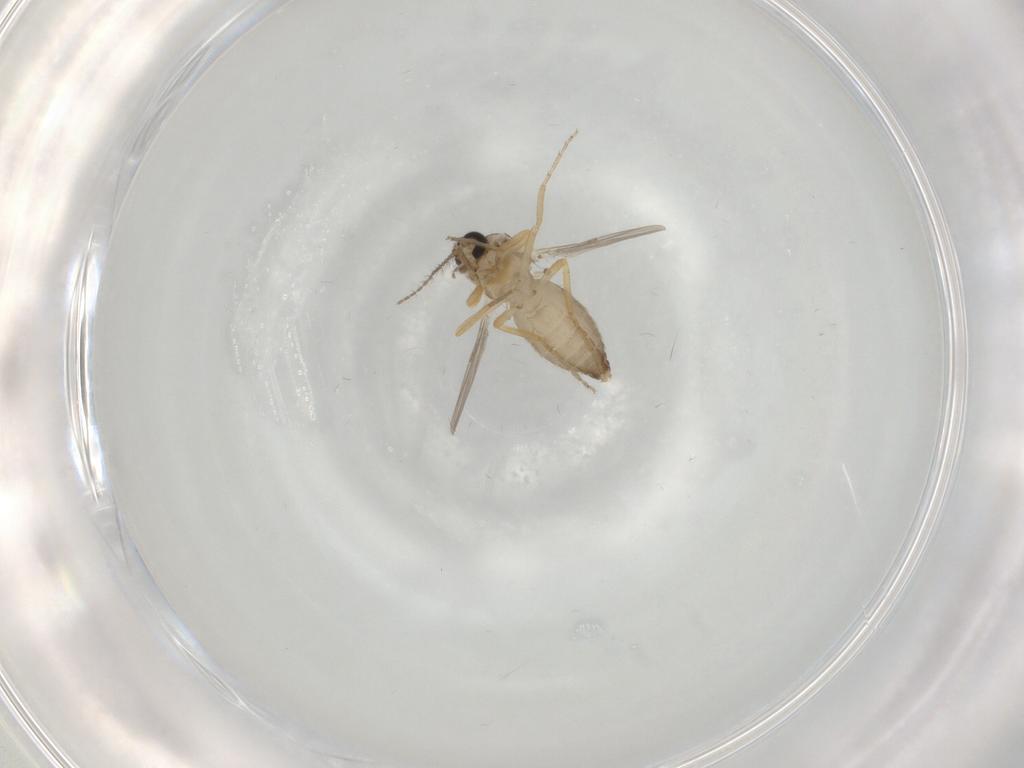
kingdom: Animalia
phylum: Arthropoda
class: Insecta
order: Diptera
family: Ceratopogonidae
